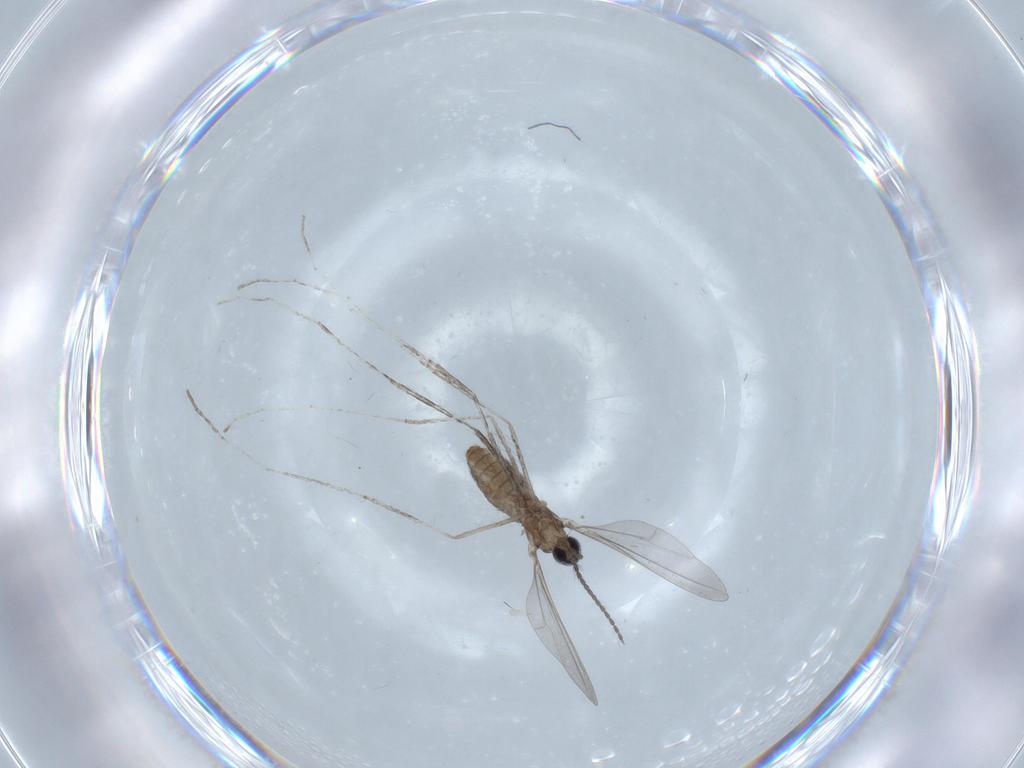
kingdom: Animalia
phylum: Arthropoda
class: Insecta
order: Diptera
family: Cecidomyiidae
